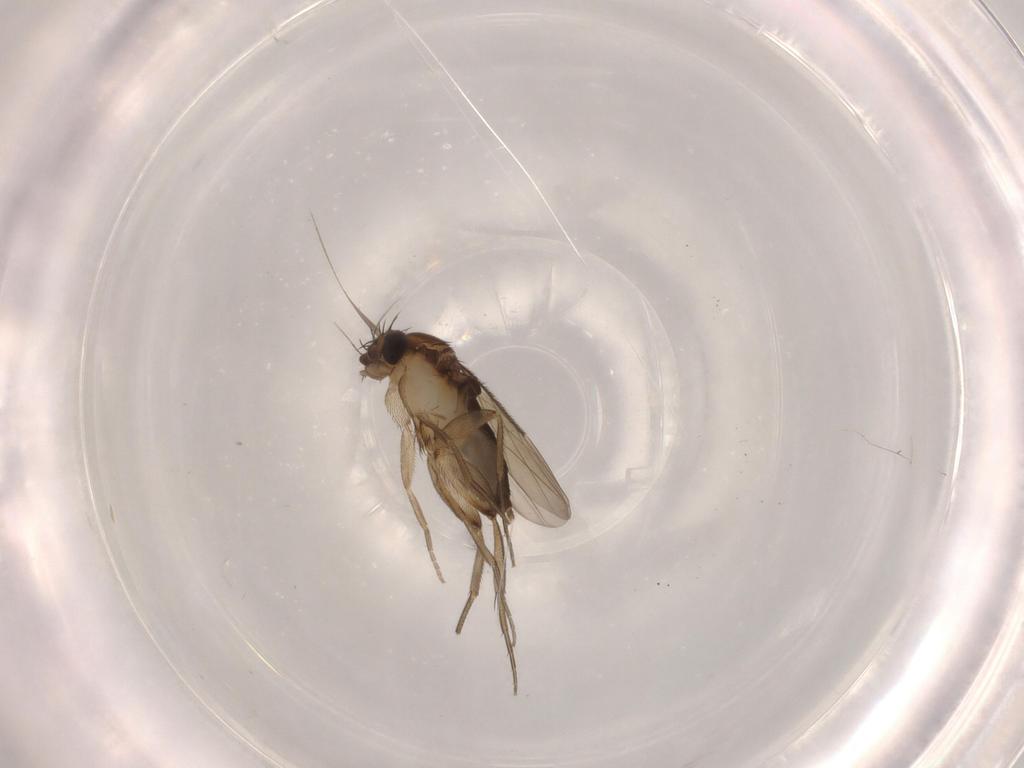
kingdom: Animalia
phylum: Arthropoda
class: Insecta
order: Diptera
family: Phoridae
